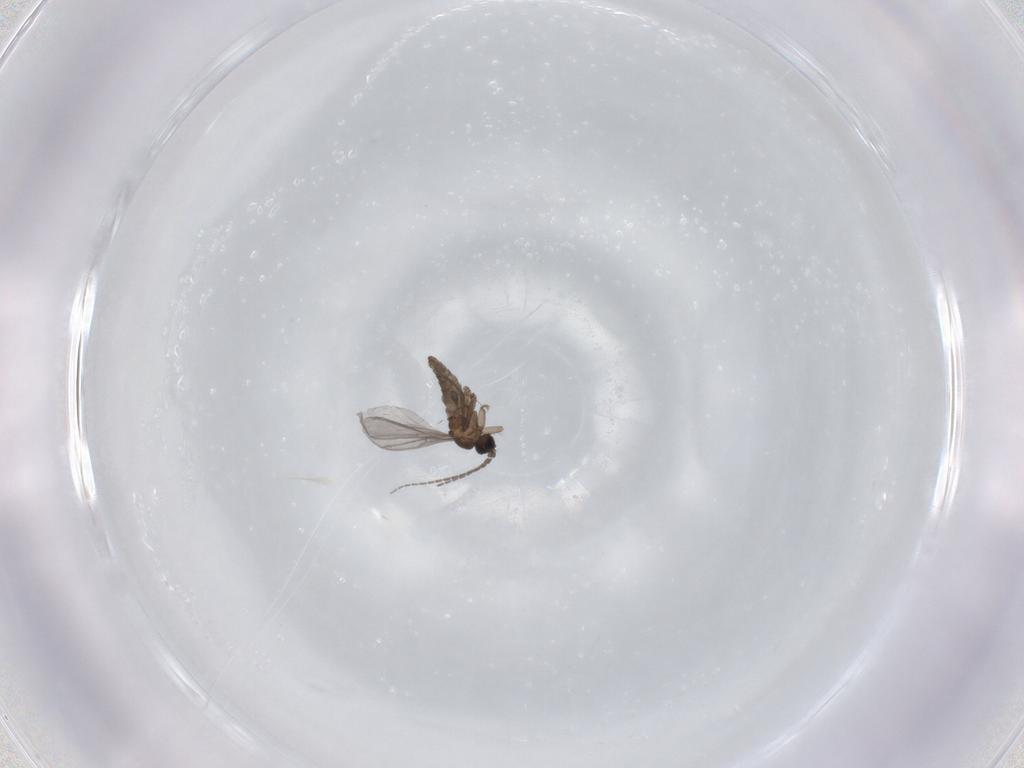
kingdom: Animalia
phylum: Arthropoda
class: Insecta
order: Diptera
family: Sciaridae
